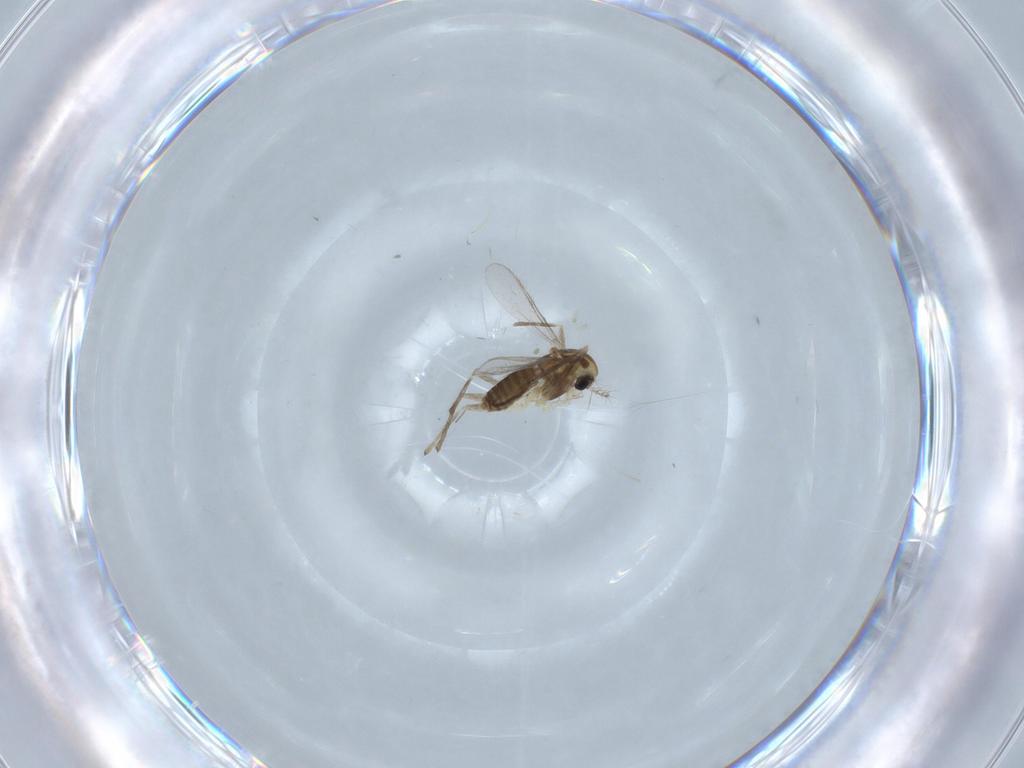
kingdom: Animalia
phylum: Arthropoda
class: Insecta
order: Diptera
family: Chironomidae
